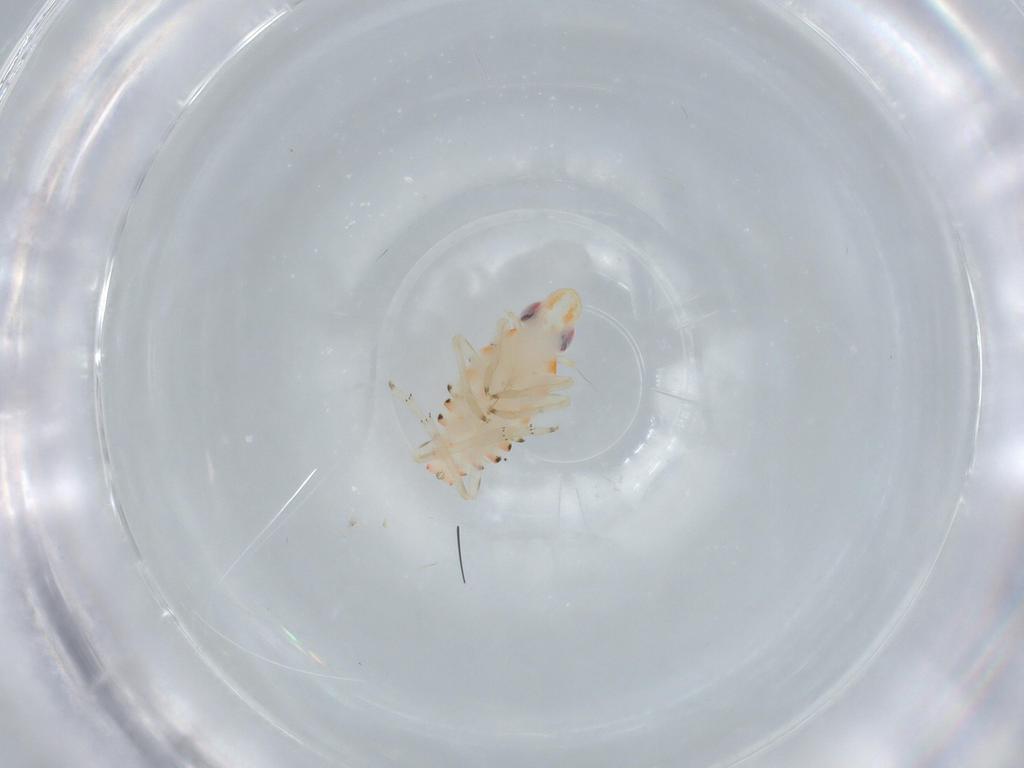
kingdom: Animalia
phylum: Arthropoda
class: Insecta
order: Hemiptera
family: Tropiduchidae
